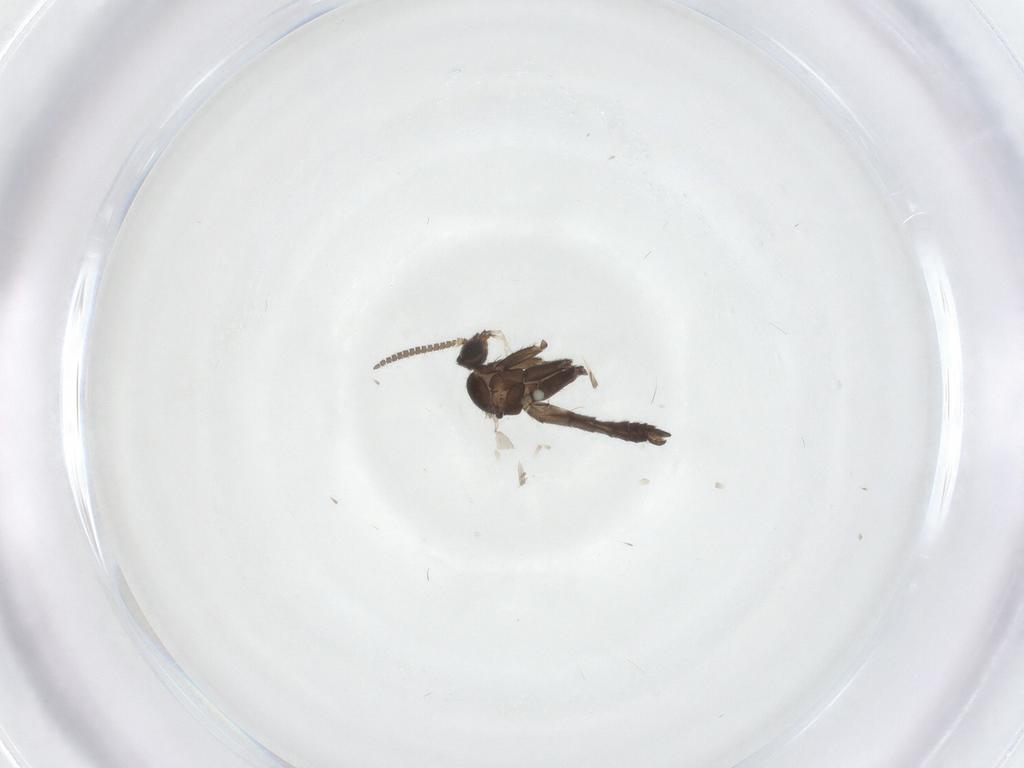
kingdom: Animalia
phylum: Arthropoda
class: Insecta
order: Diptera
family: Keroplatidae
